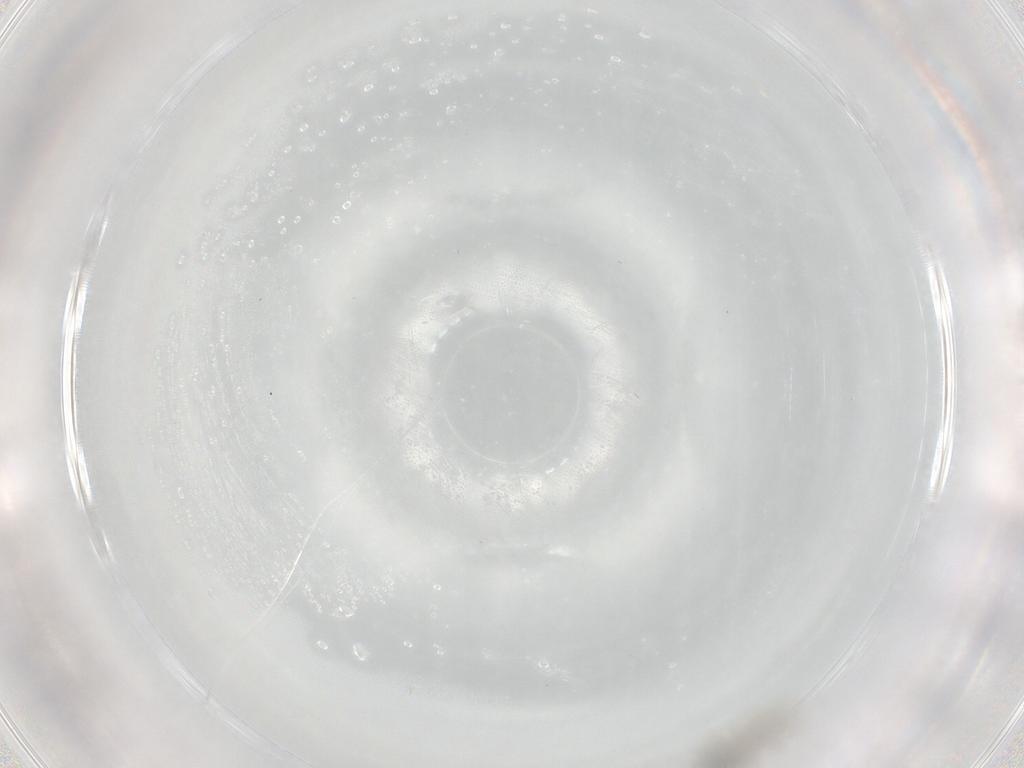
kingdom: Animalia
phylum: Arthropoda
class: Insecta
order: Diptera
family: Cecidomyiidae
